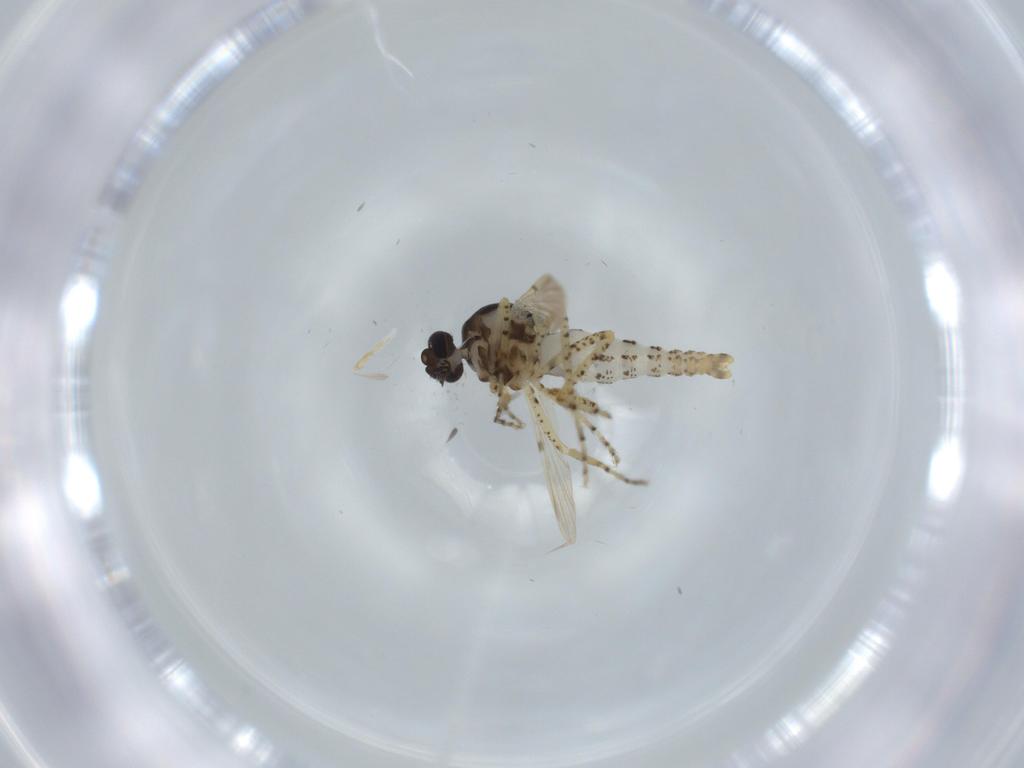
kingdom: Animalia
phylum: Arthropoda
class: Insecta
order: Diptera
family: Ceratopogonidae
